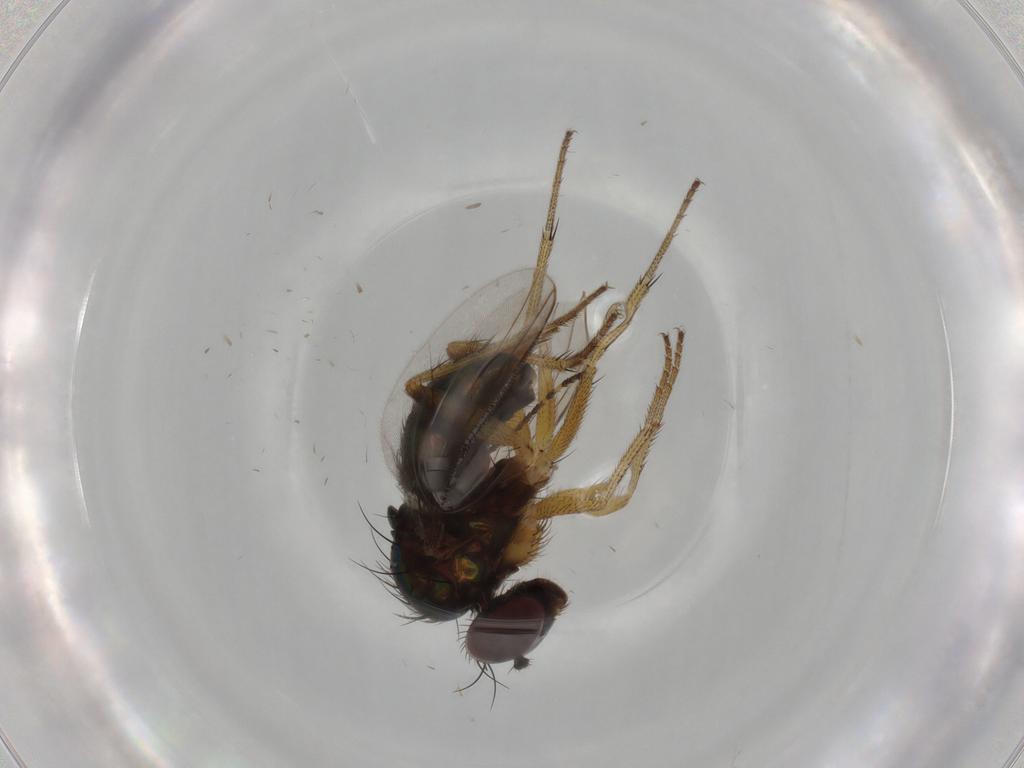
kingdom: Animalia
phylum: Arthropoda
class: Insecta
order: Diptera
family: Dolichopodidae
